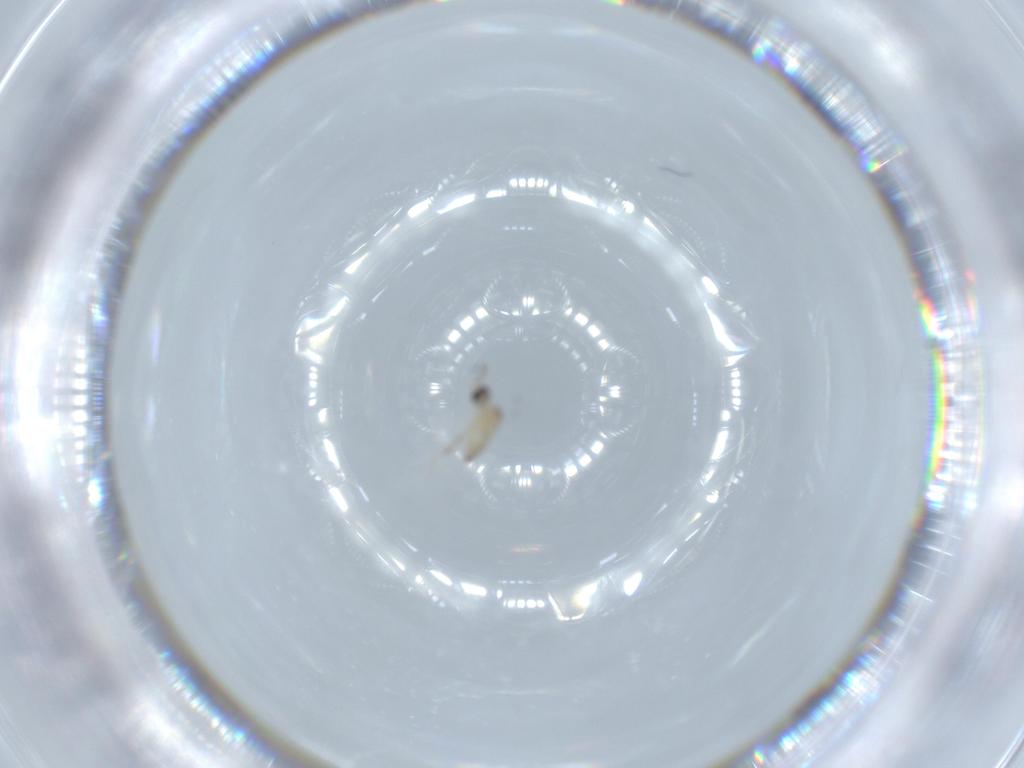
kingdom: Animalia
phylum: Arthropoda
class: Insecta
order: Diptera
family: Cecidomyiidae
